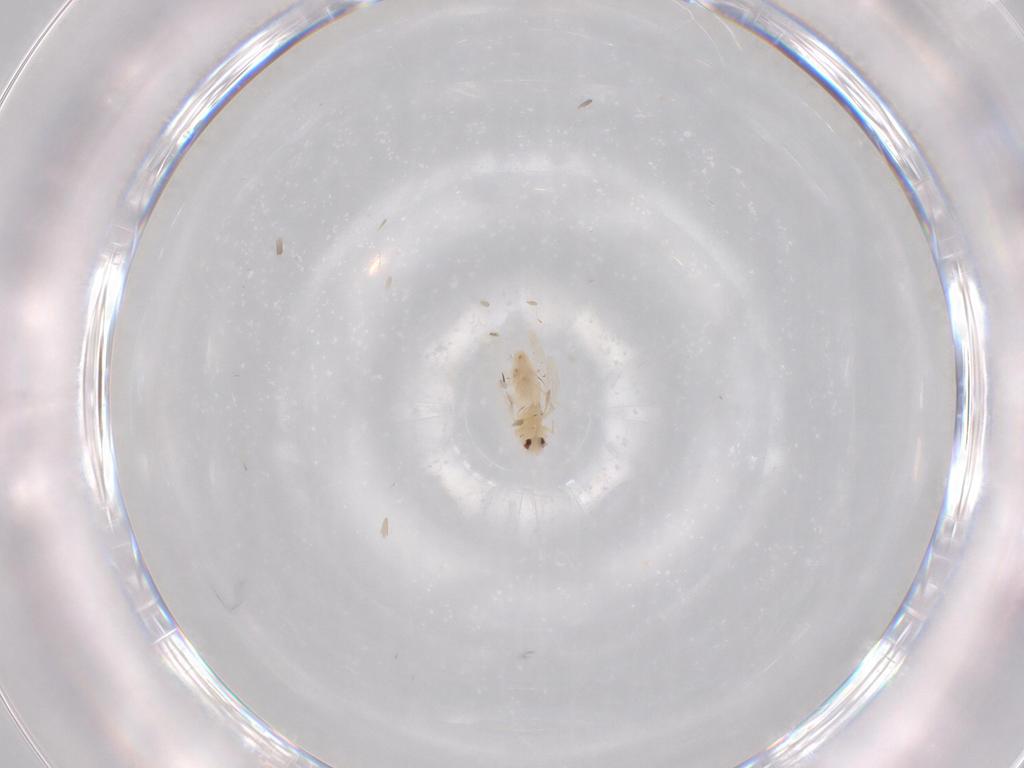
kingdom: Animalia
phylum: Arthropoda
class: Insecta
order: Hemiptera
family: Aleyrodidae
